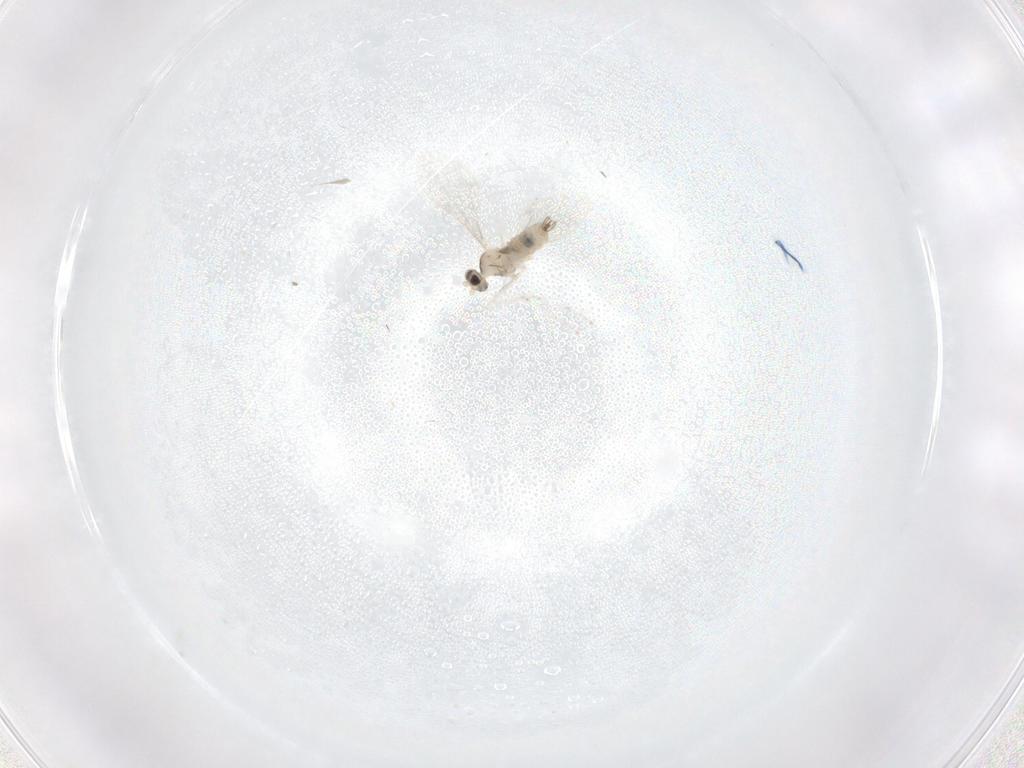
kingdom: Animalia
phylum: Arthropoda
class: Insecta
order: Diptera
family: Cecidomyiidae
